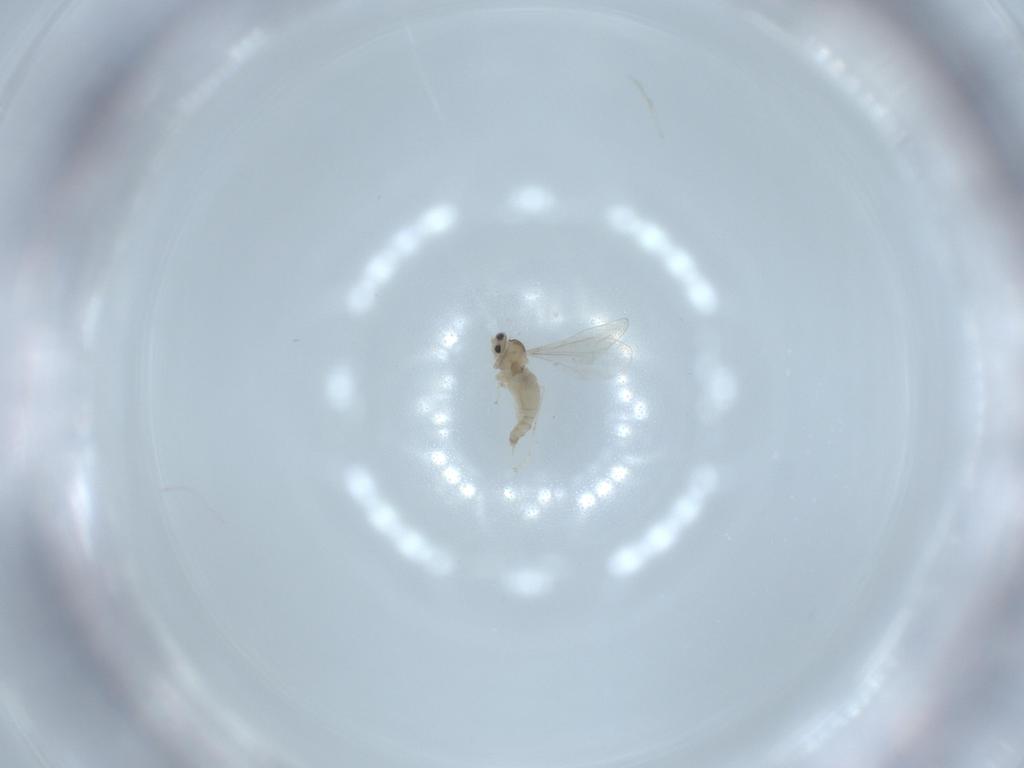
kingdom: Animalia
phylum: Arthropoda
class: Insecta
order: Diptera
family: Cecidomyiidae
